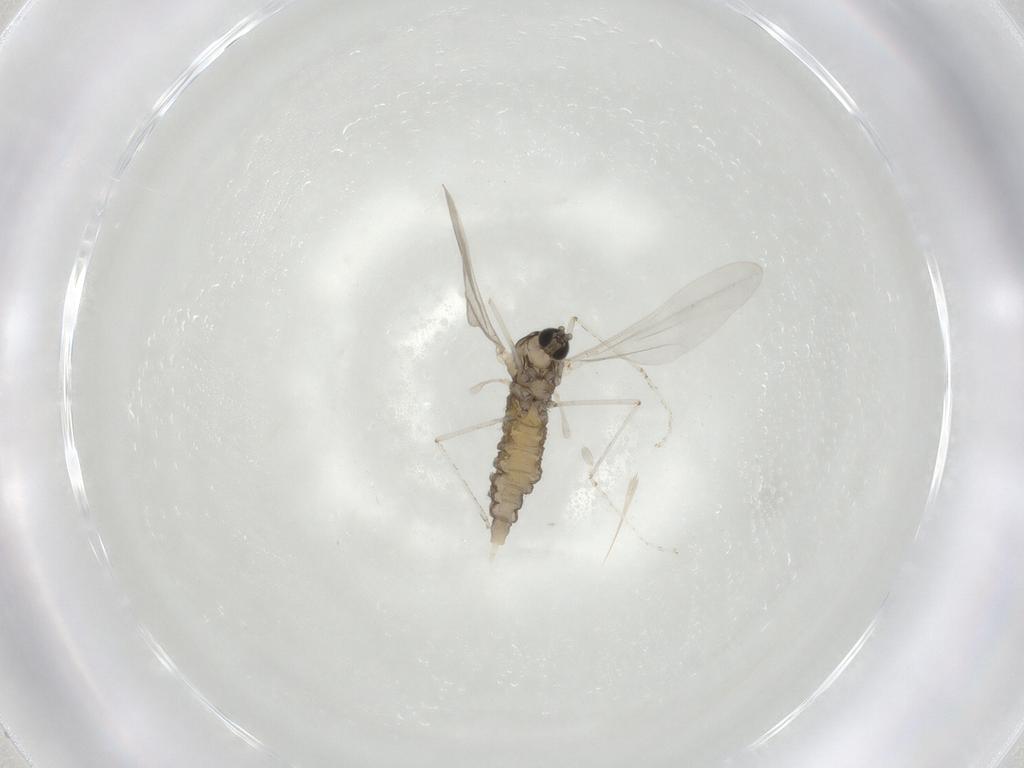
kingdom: Animalia
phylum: Arthropoda
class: Insecta
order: Diptera
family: Cecidomyiidae
